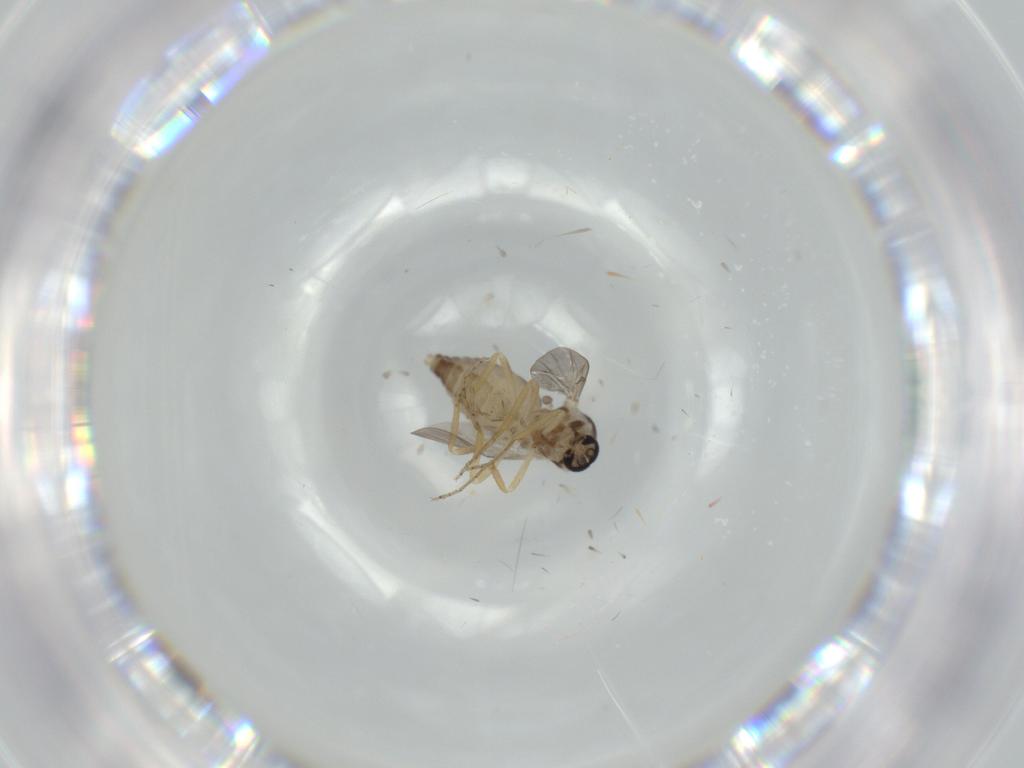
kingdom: Animalia
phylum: Arthropoda
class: Insecta
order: Diptera
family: Ceratopogonidae
